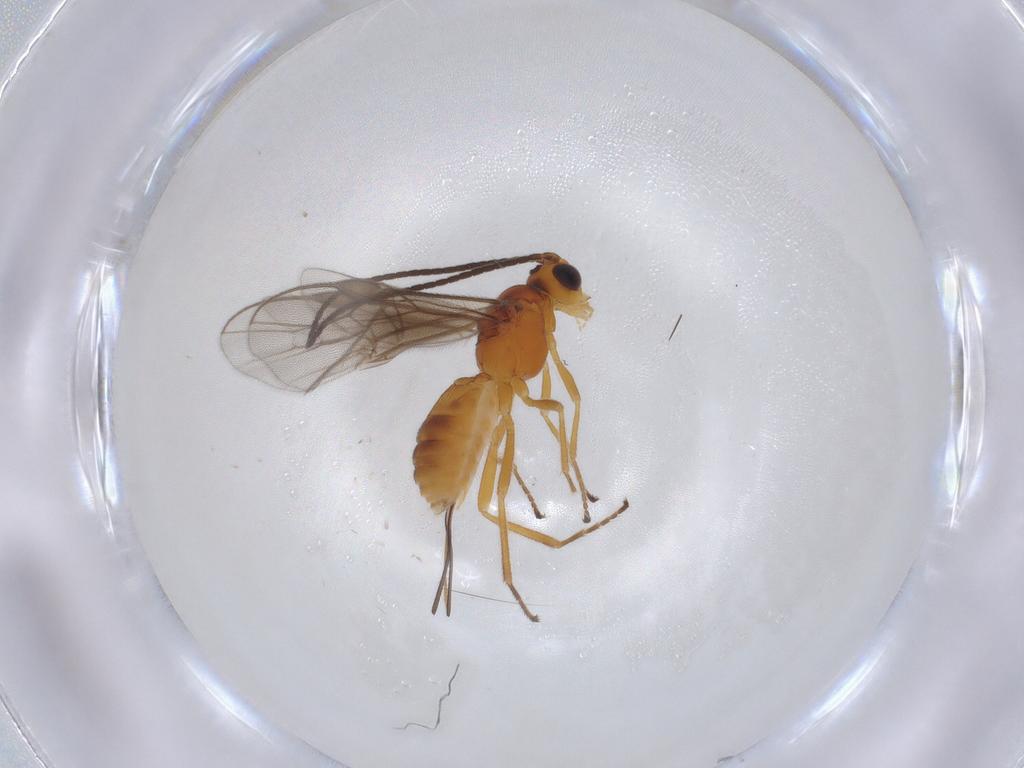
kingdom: Animalia
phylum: Arthropoda
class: Insecta
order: Hymenoptera
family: Braconidae
